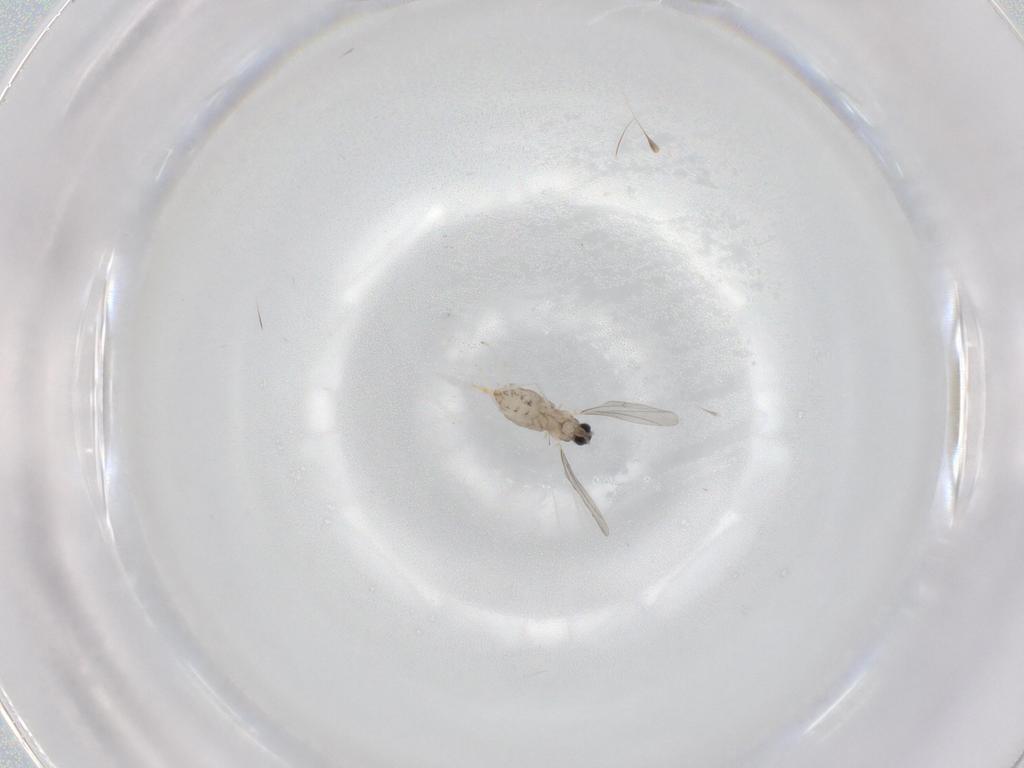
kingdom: Animalia
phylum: Arthropoda
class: Insecta
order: Diptera
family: Cecidomyiidae
